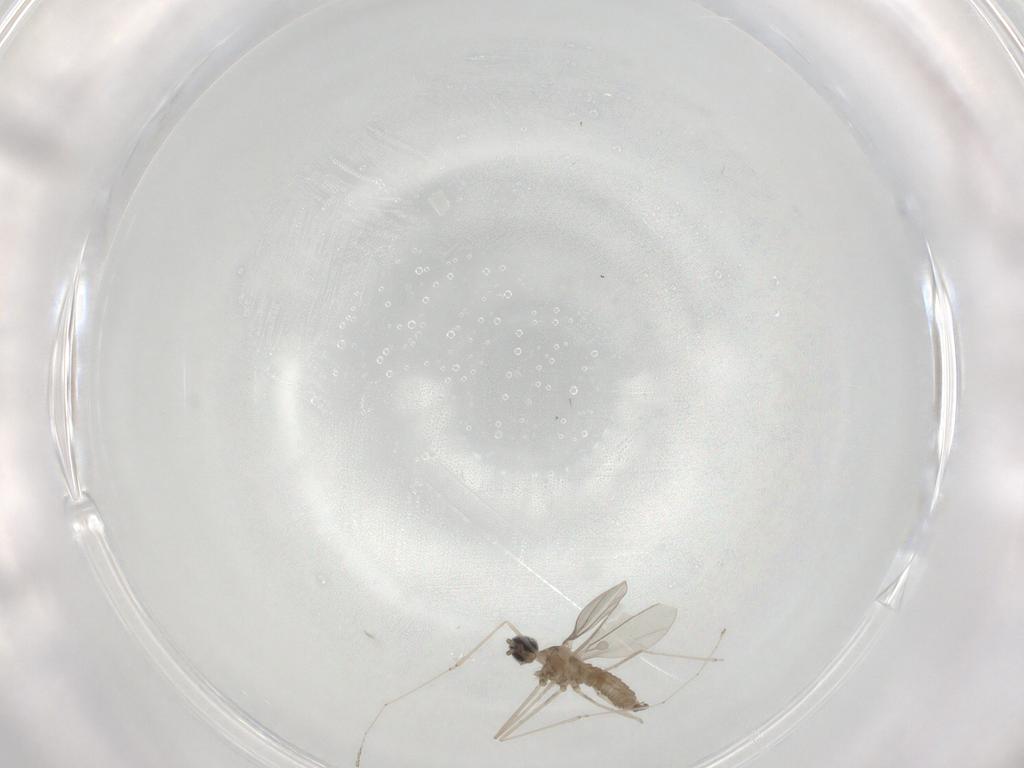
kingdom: Animalia
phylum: Arthropoda
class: Insecta
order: Diptera
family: Cecidomyiidae
